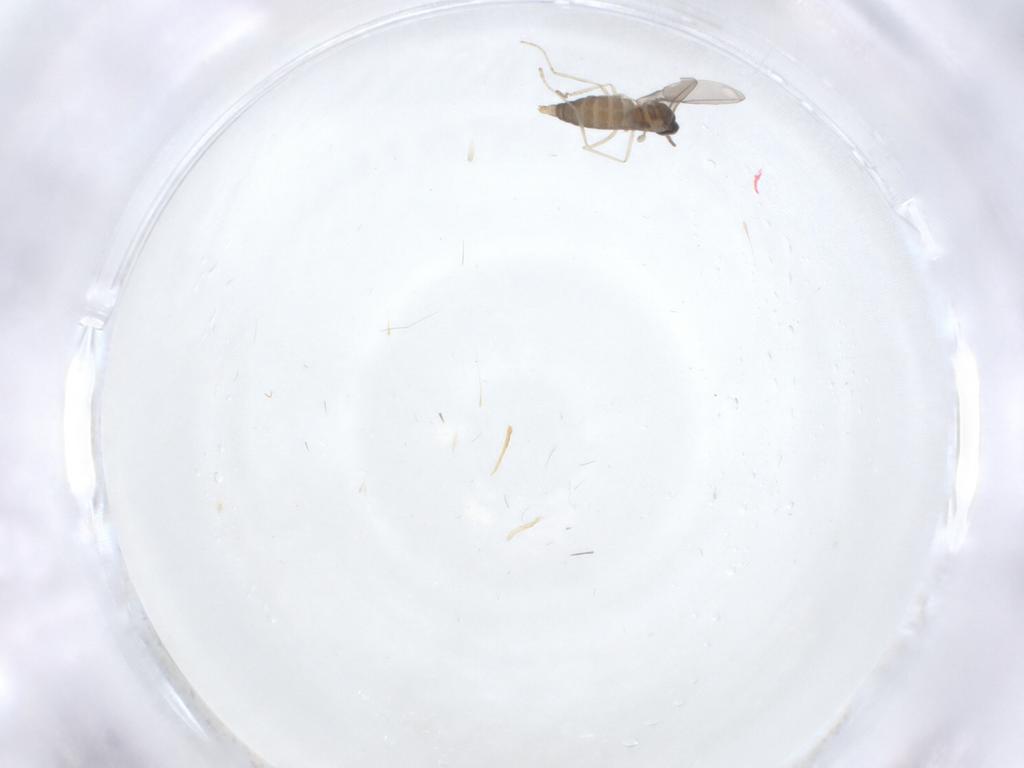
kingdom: Animalia
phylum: Arthropoda
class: Insecta
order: Diptera
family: Cecidomyiidae
